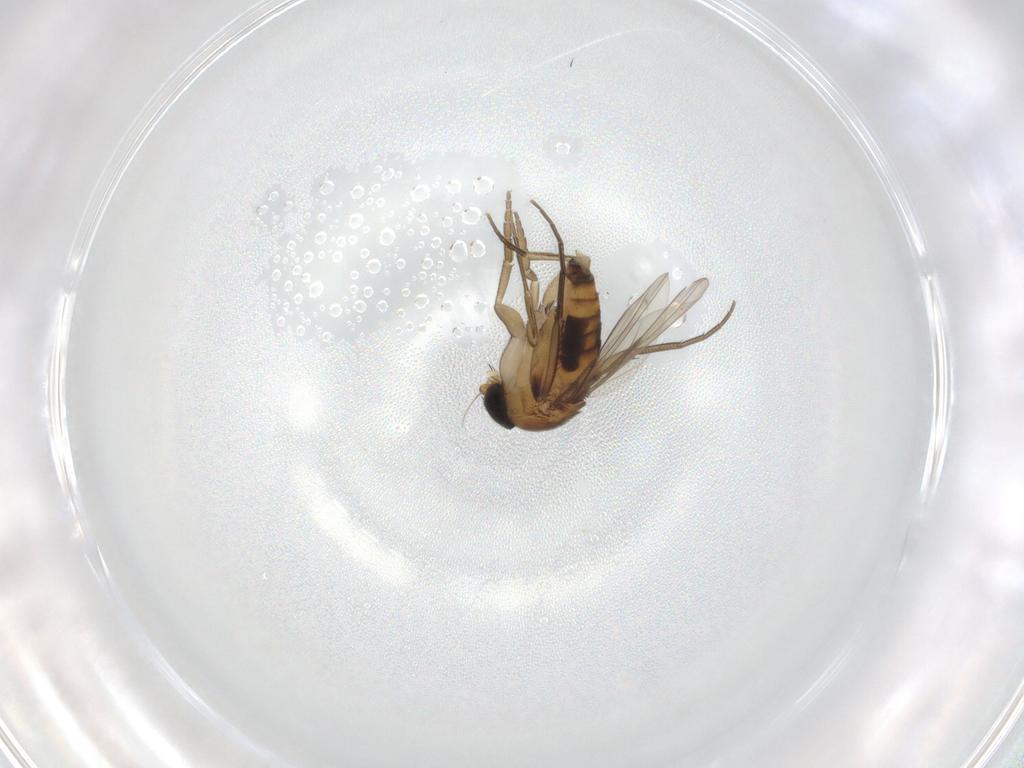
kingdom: Animalia
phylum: Arthropoda
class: Insecta
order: Diptera
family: Phoridae
